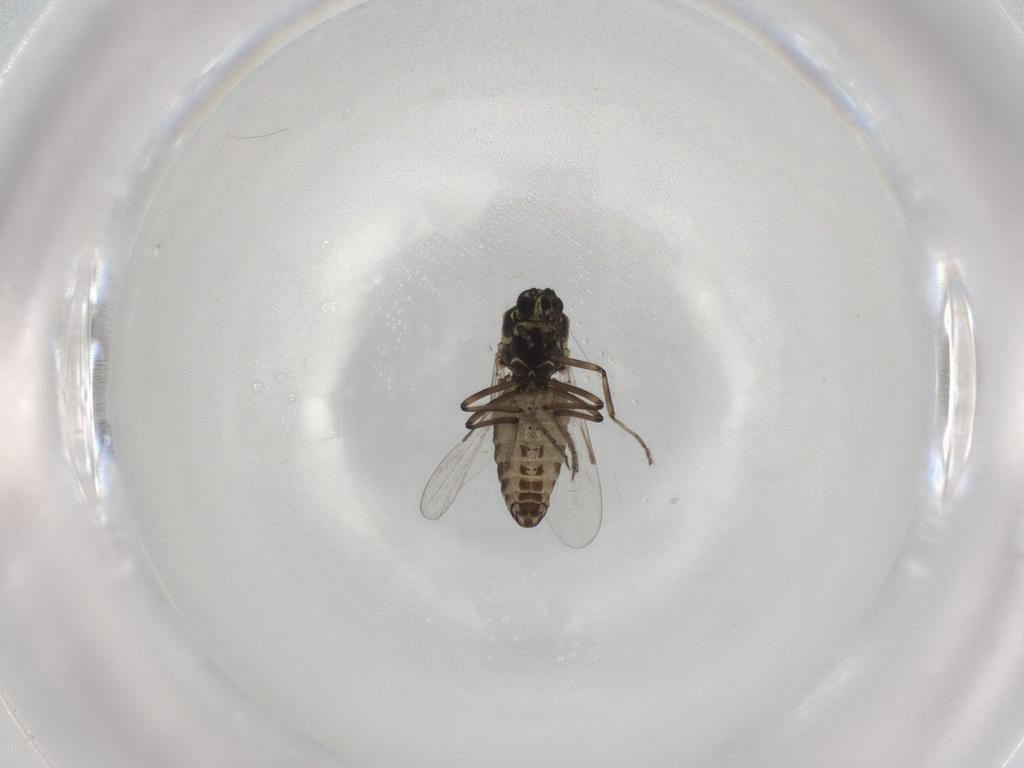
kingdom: Animalia
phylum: Arthropoda
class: Insecta
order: Diptera
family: Ceratopogonidae
